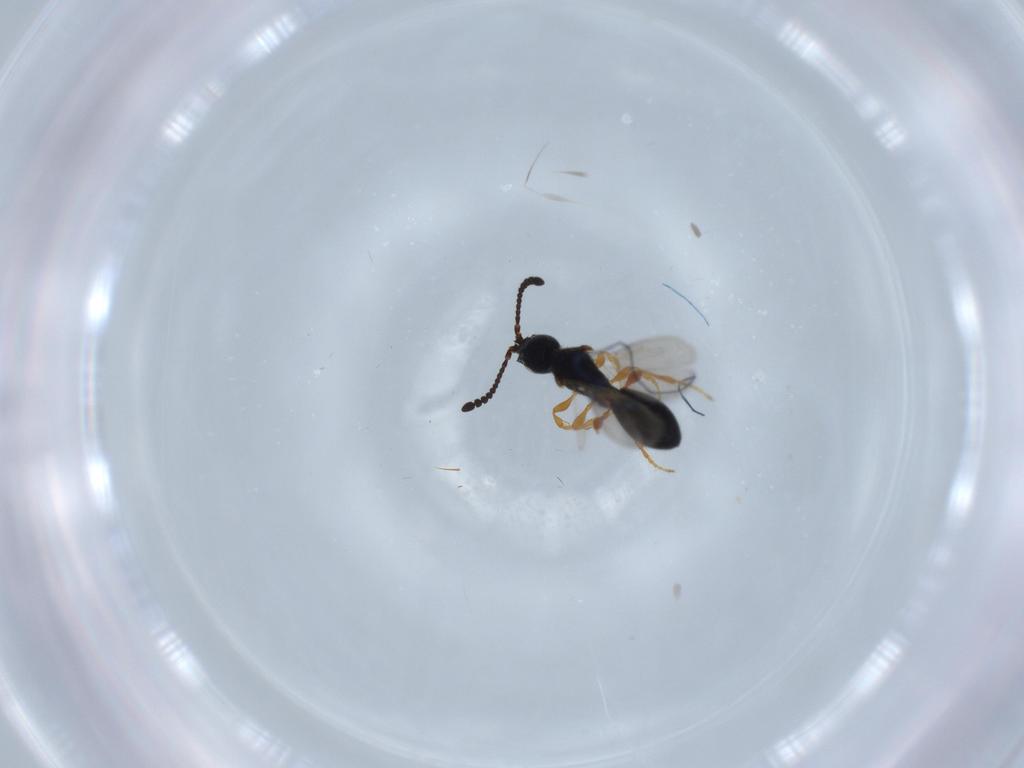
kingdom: Animalia
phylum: Arthropoda
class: Insecta
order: Hymenoptera
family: Diapriidae
